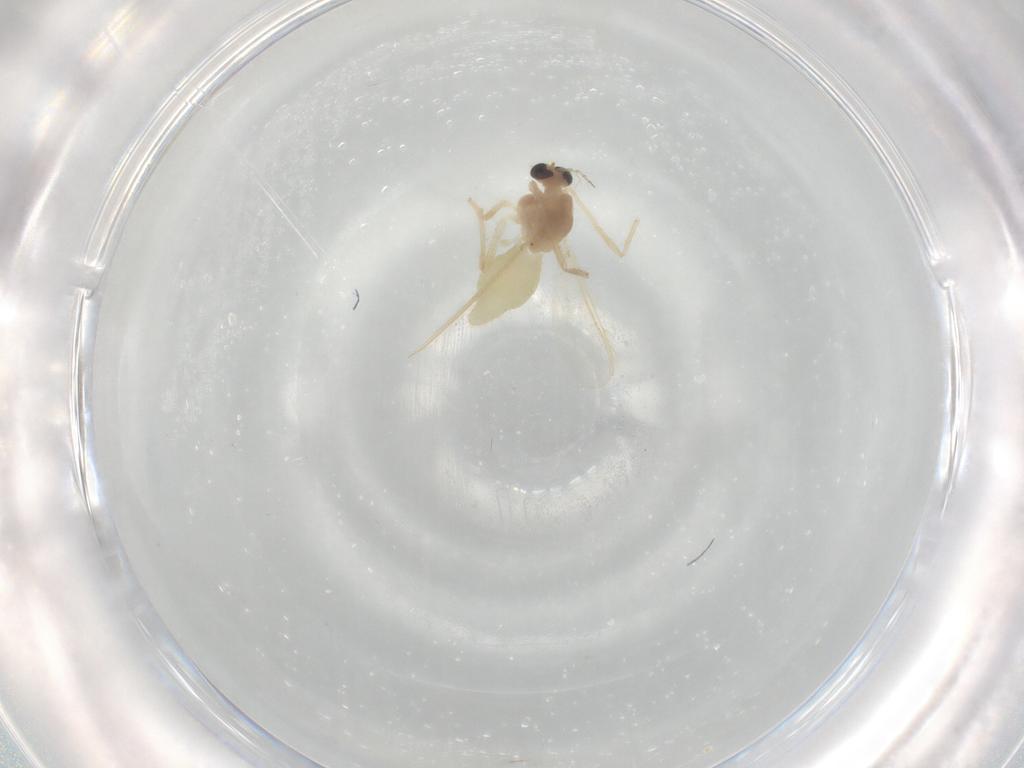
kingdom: Animalia
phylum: Arthropoda
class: Insecta
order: Diptera
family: Chironomidae
